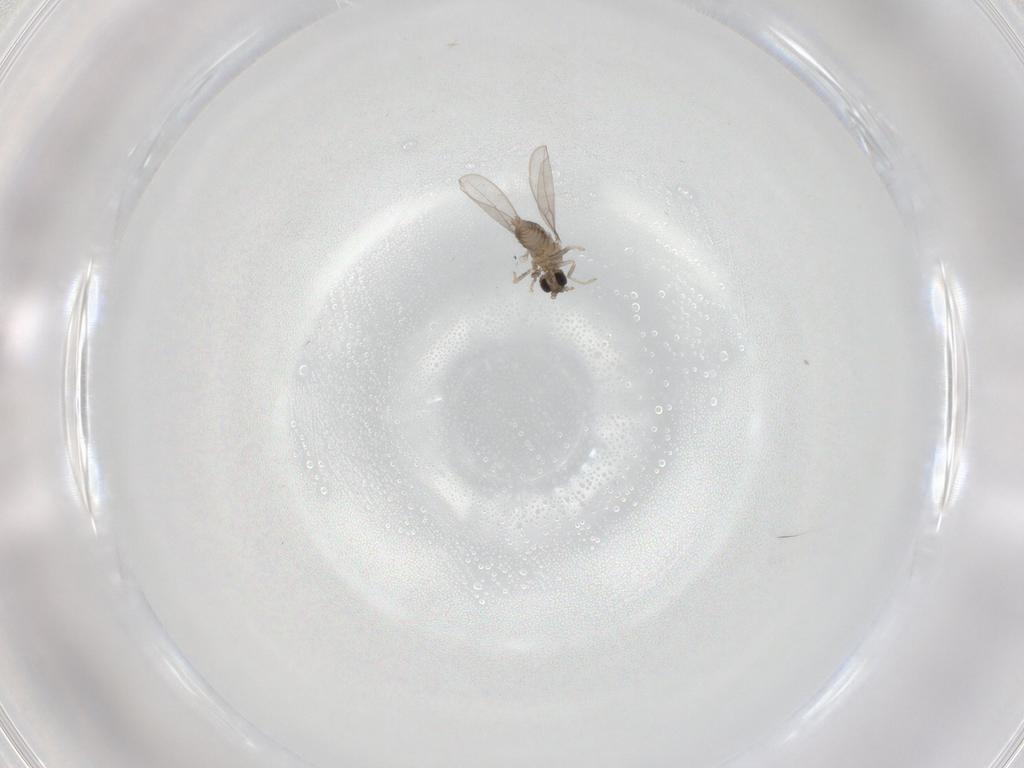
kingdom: Animalia
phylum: Arthropoda
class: Insecta
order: Diptera
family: Cecidomyiidae
